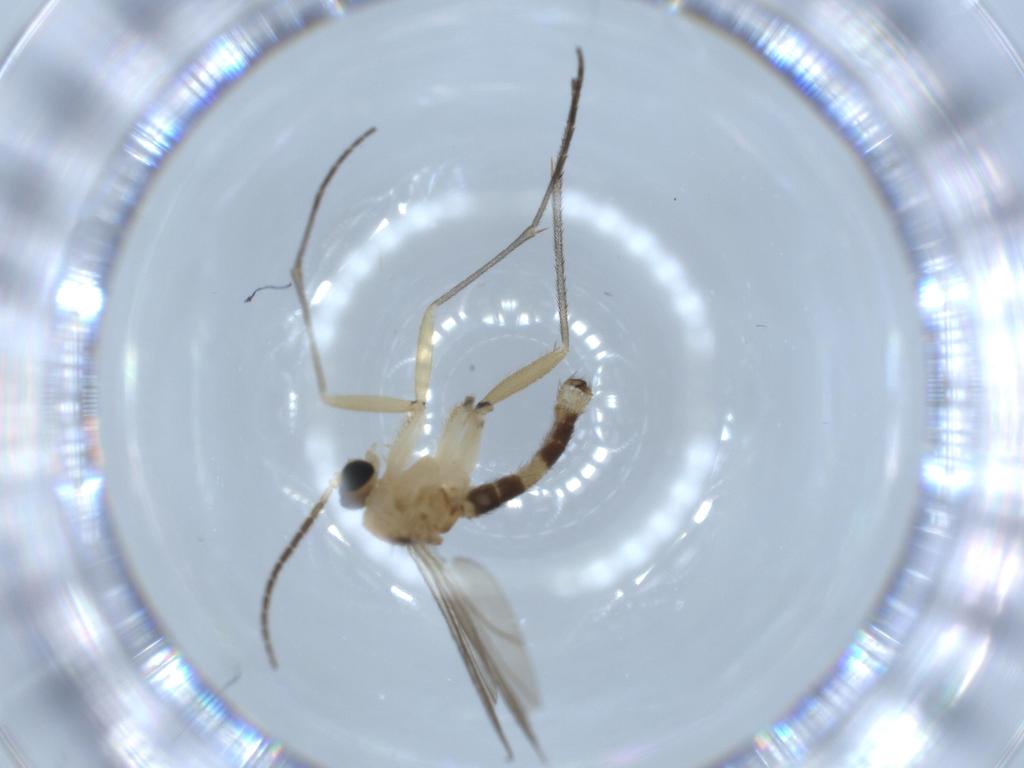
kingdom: Animalia
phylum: Arthropoda
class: Insecta
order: Diptera
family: Sciaridae
